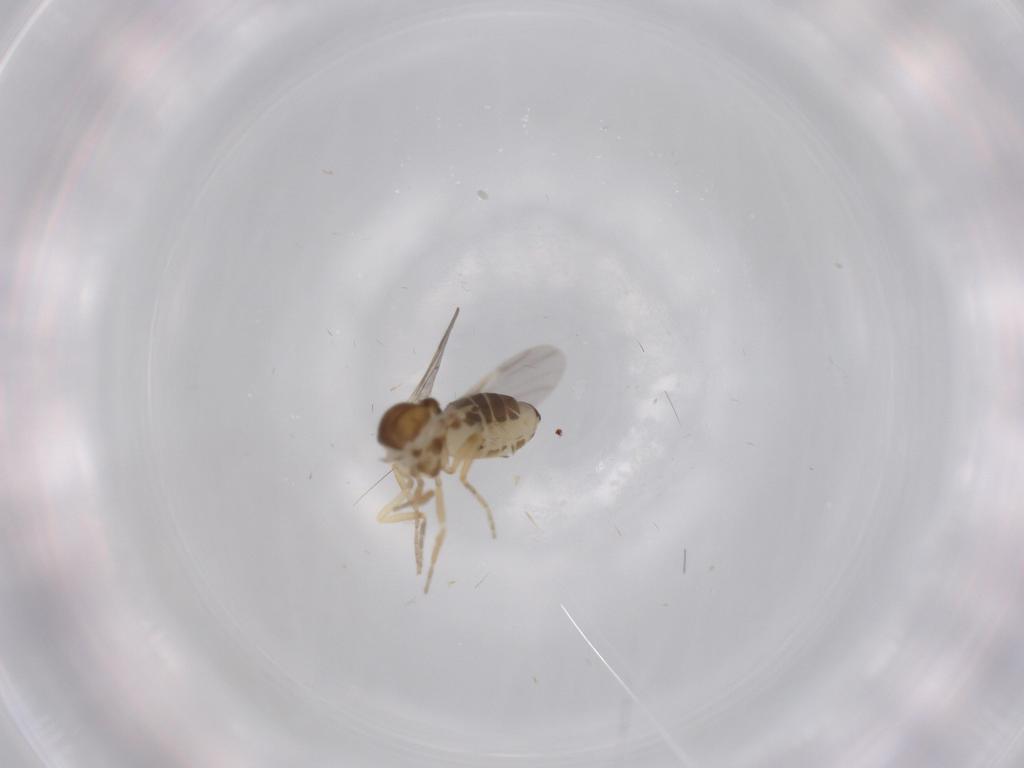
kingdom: Animalia
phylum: Arthropoda
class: Insecta
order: Diptera
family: Ceratopogonidae
